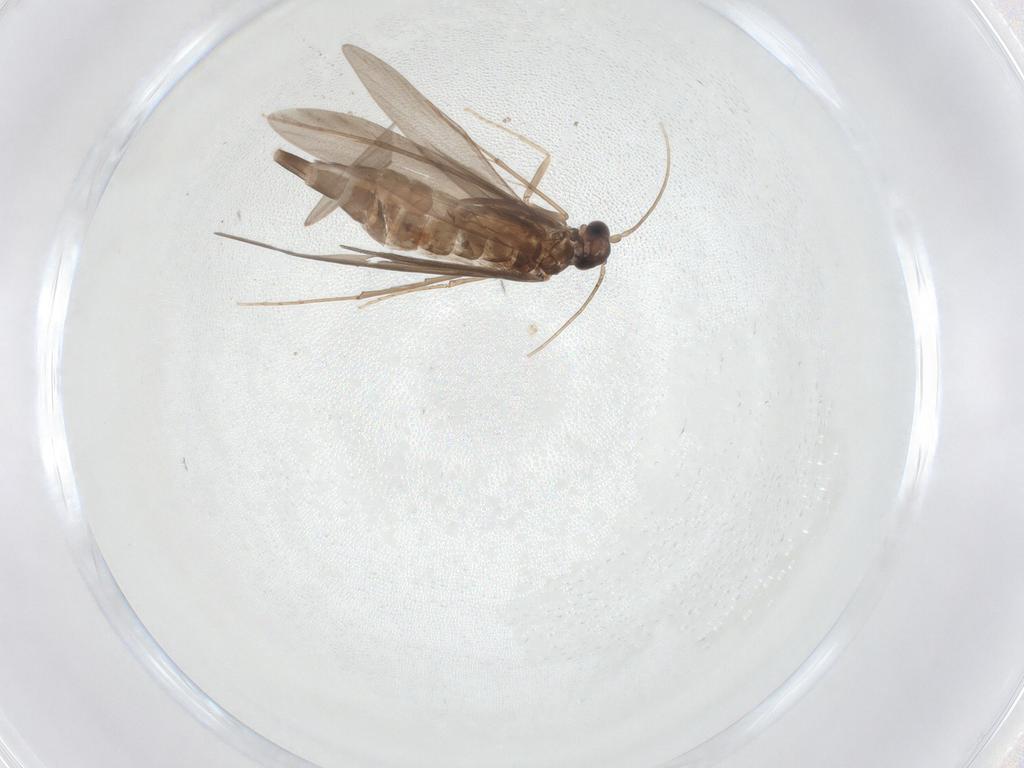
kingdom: Animalia
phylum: Arthropoda
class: Insecta
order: Trichoptera
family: Xiphocentronidae
